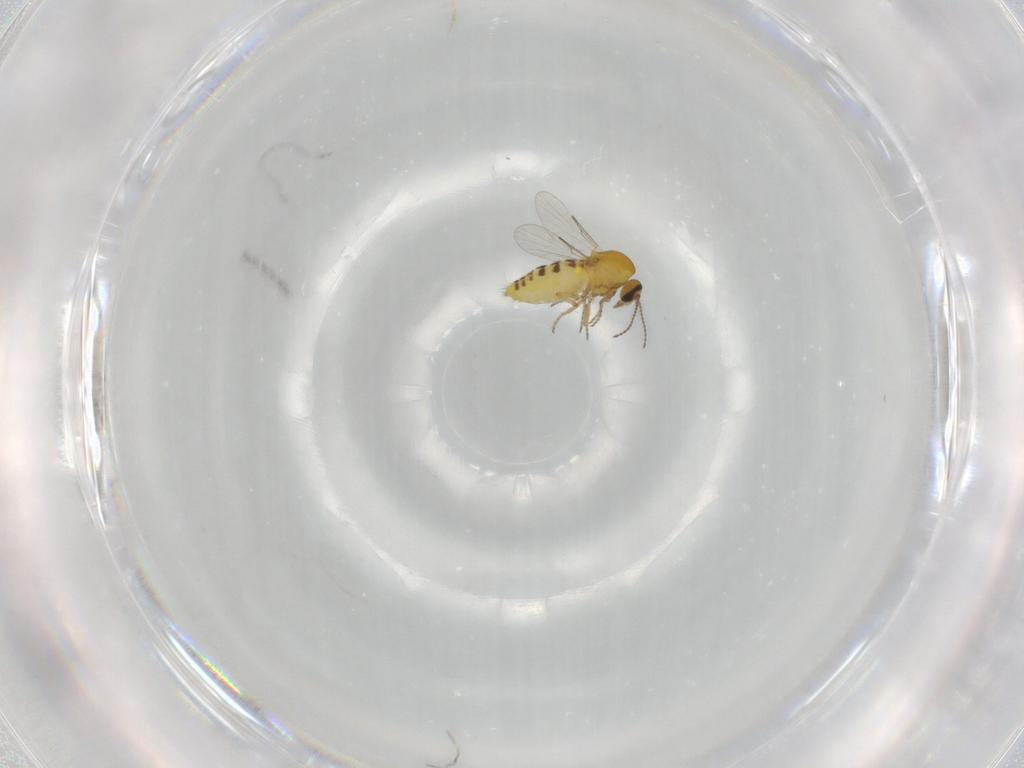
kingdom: Animalia
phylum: Arthropoda
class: Insecta
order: Diptera
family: Ceratopogonidae
